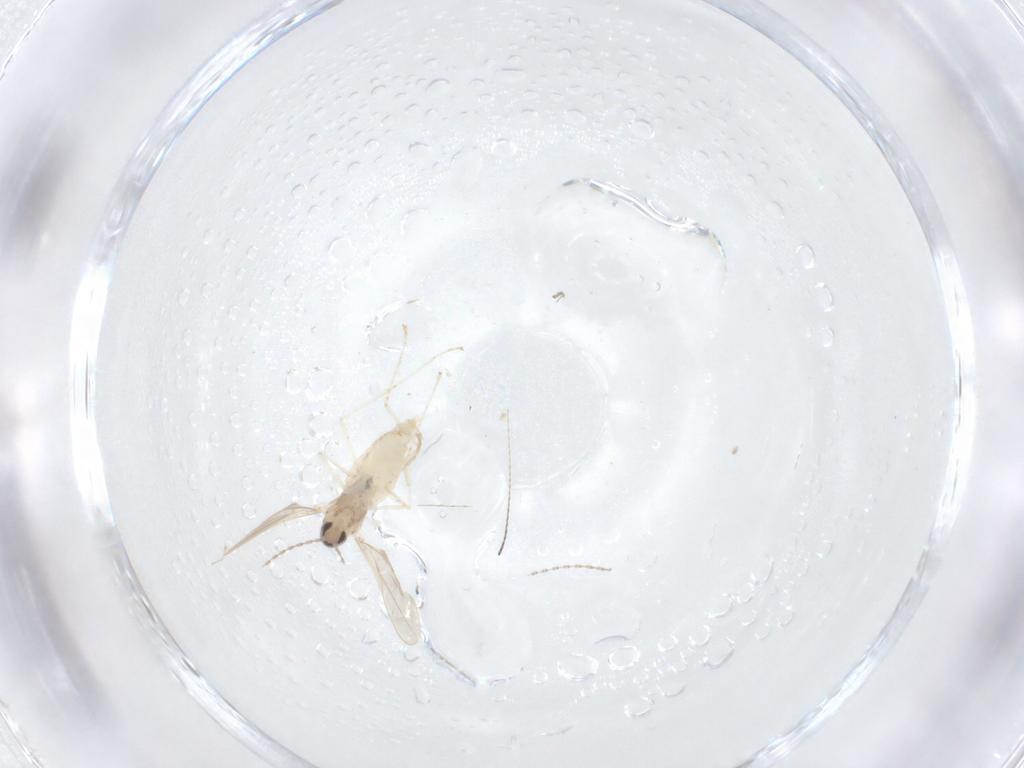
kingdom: Animalia
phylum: Arthropoda
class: Insecta
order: Diptera
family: Cecidomyiidae
